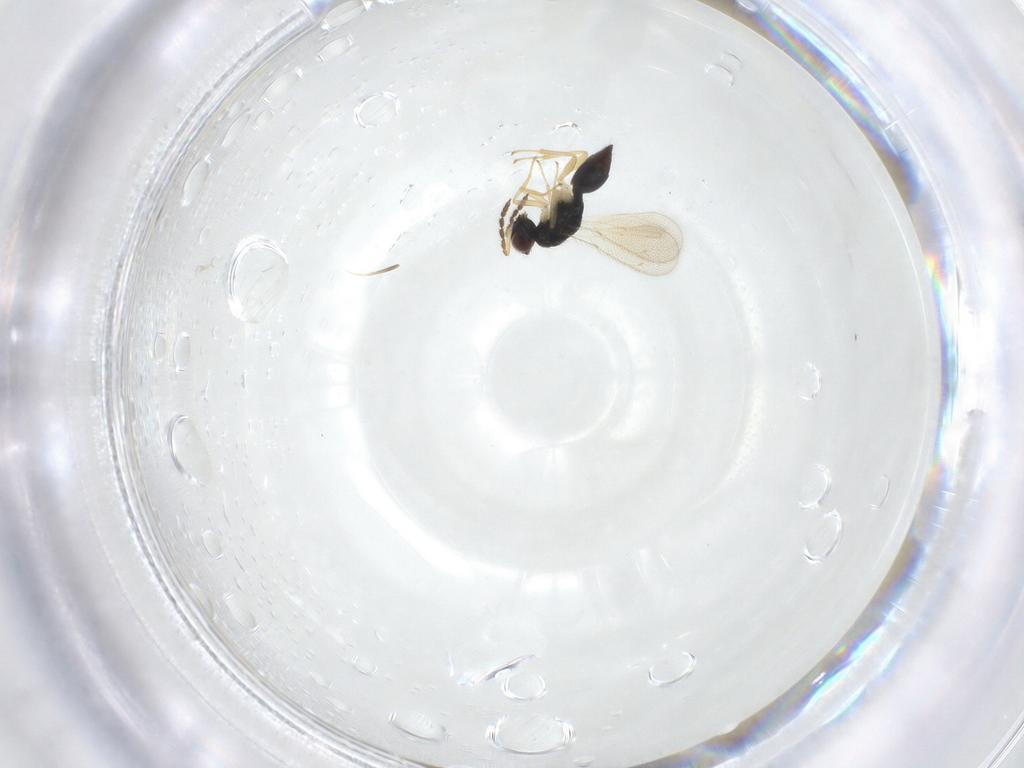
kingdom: Animalia
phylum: Arthropoda
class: Insecta
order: Hymenoptera
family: Eulophidae
